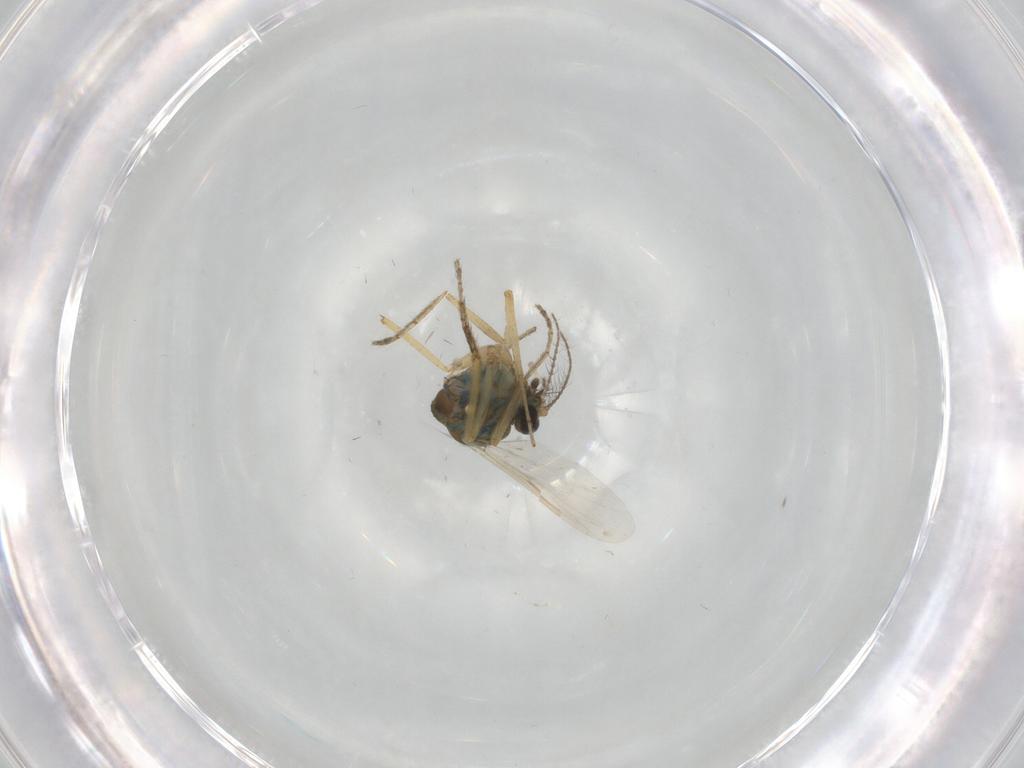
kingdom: Animalia
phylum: Arthropoda
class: Insecta
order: Diptera
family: Ceratopogonidae
